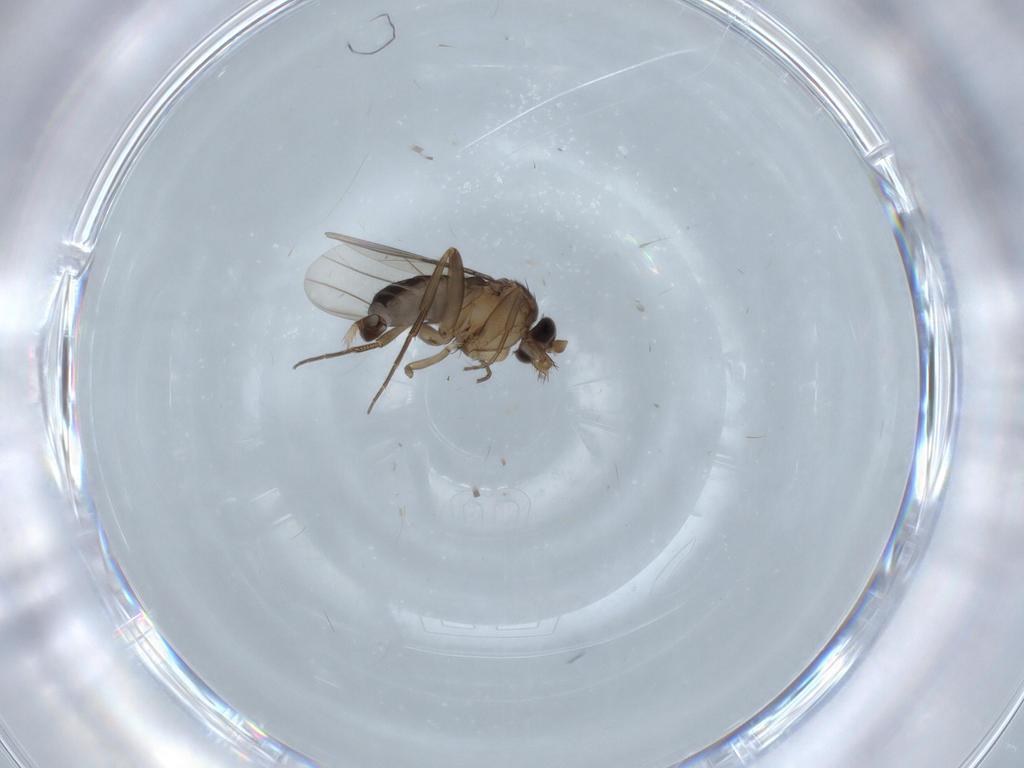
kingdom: Animalia
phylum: Arthropoda
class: Insecta
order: Diptera
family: Phoridae
